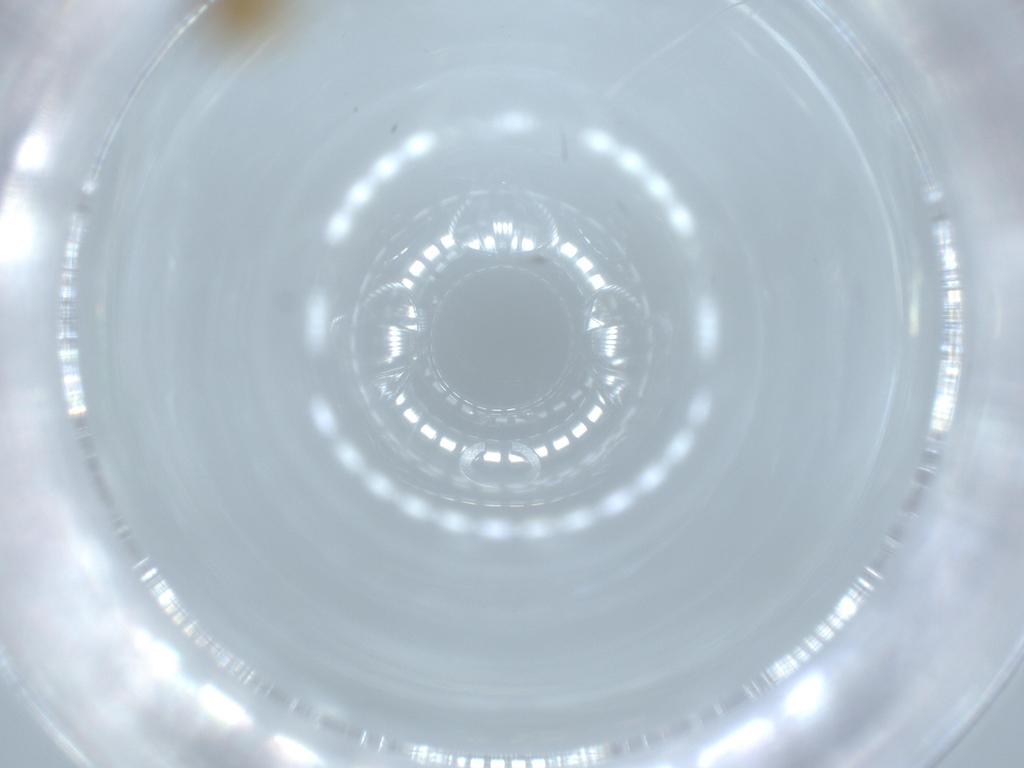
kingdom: Animalia
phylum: Arthropoda
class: Insecta
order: Diptera
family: Chironomidae
